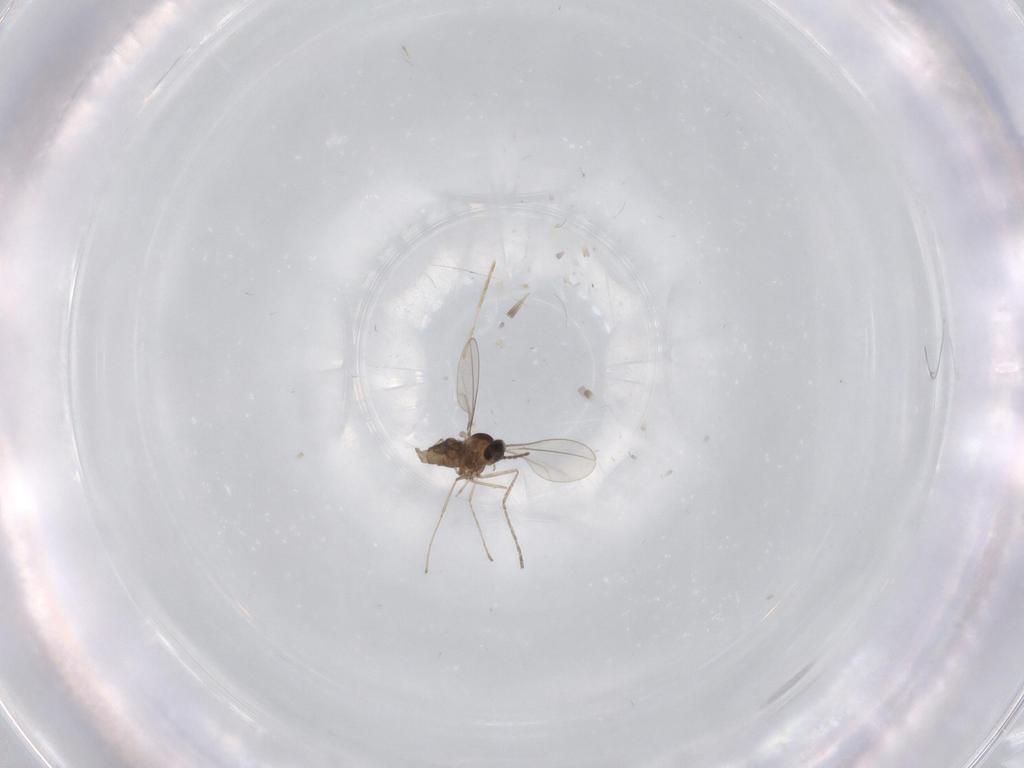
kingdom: Animalia
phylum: Arthropoda
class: Insecta
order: Diptera
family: Cecidomyiidae
